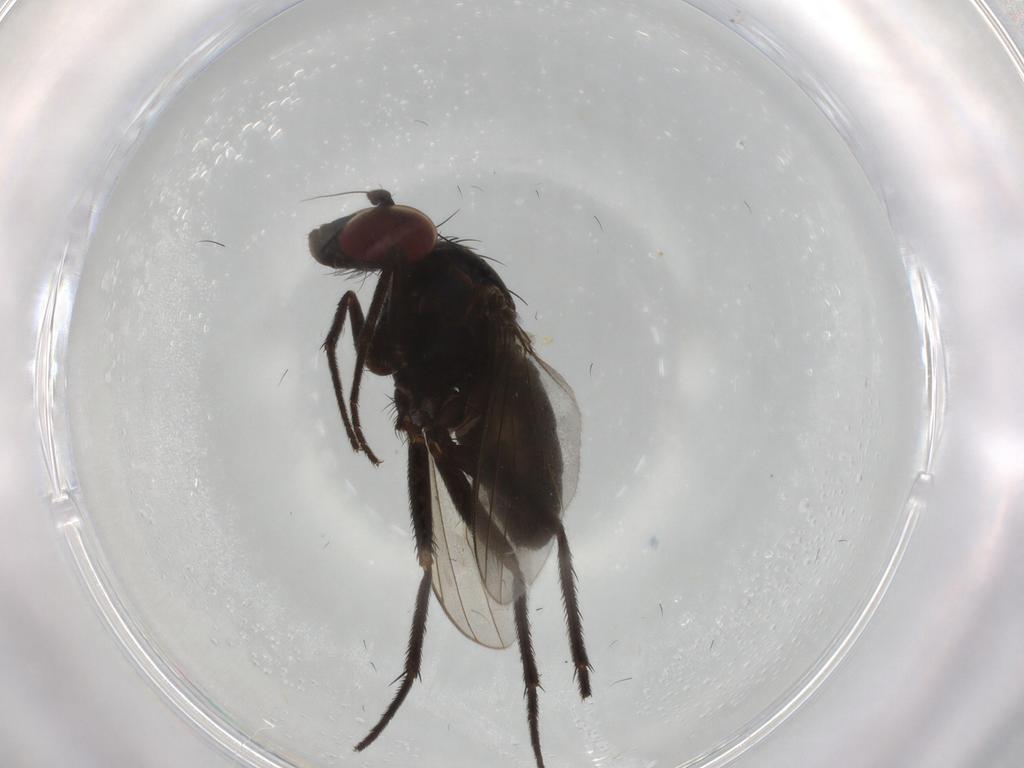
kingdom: Animalia
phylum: Arthropoda
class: Insecta
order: Diptera
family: Dolichopodidae
